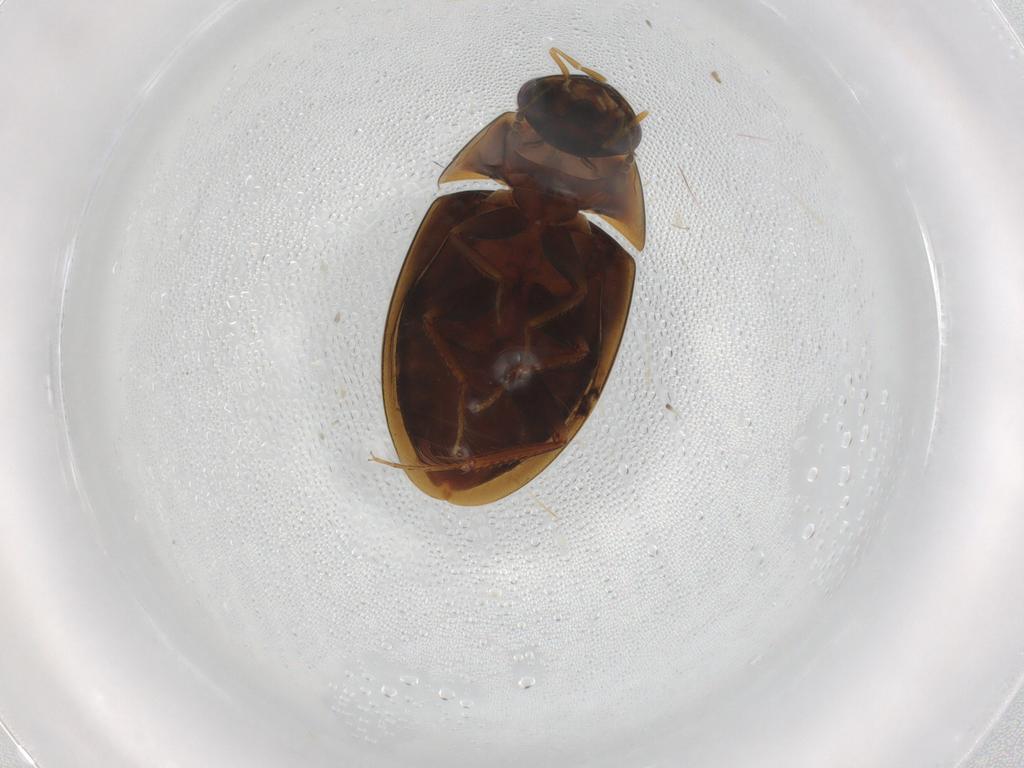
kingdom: Animalia
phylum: Arthropoda
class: Insecta
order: Coleoptera
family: Hydrophilidae
